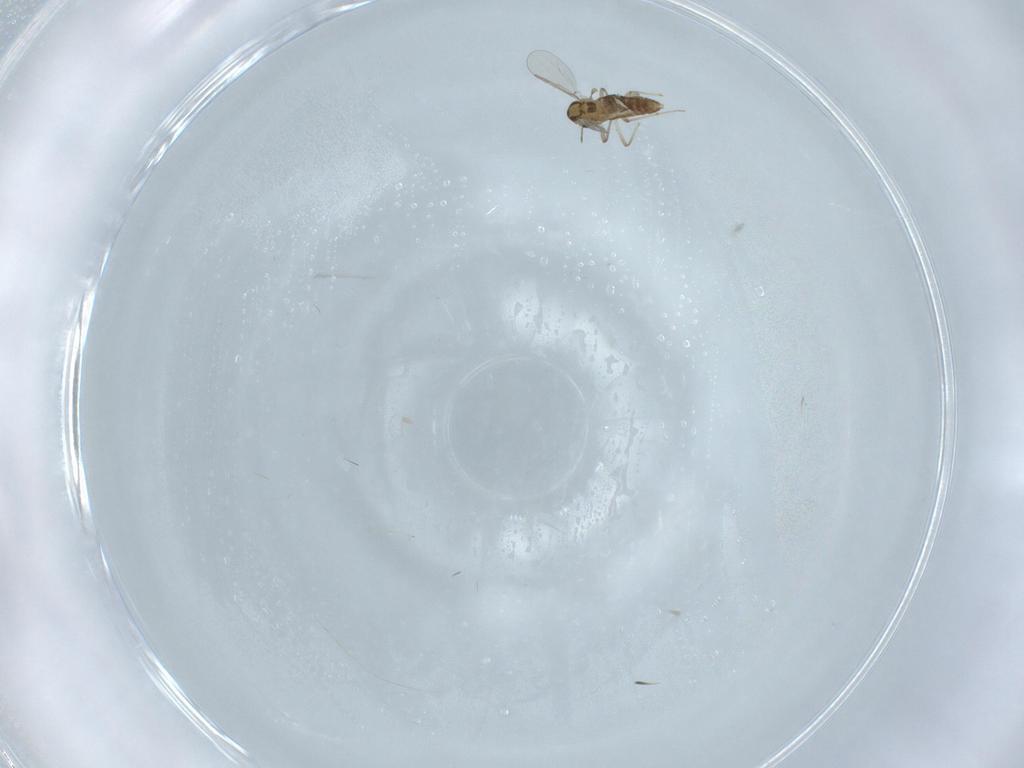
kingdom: Animalia
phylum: Arthropoda
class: Insecta
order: Diptera
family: Chironomidae
